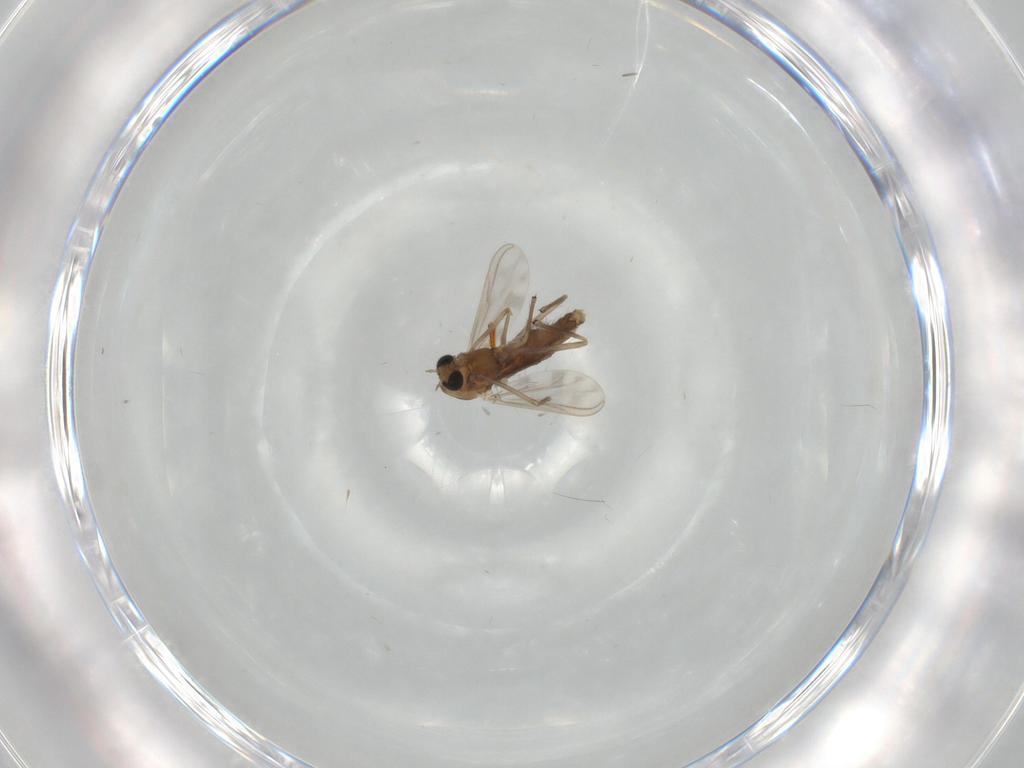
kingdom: Animalia
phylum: Arthropoda
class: Insecta
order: Diptera
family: Chironomidae
